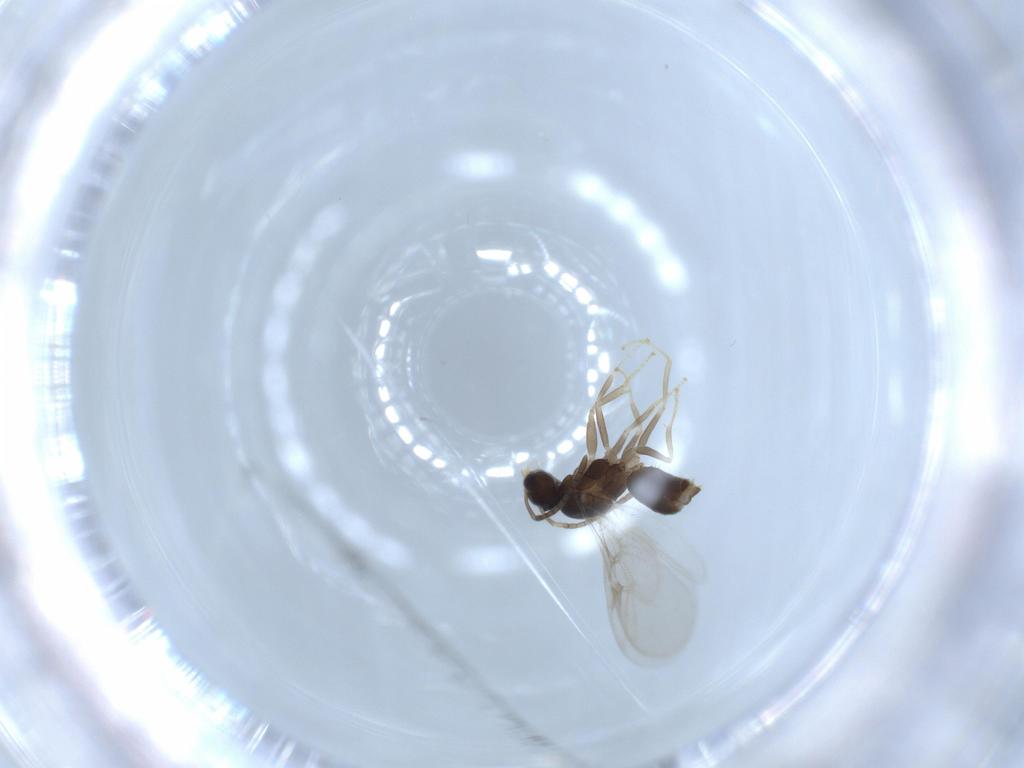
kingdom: Animalia
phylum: Arthropoda
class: Insecta
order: Hymenoptera
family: Formicidae
